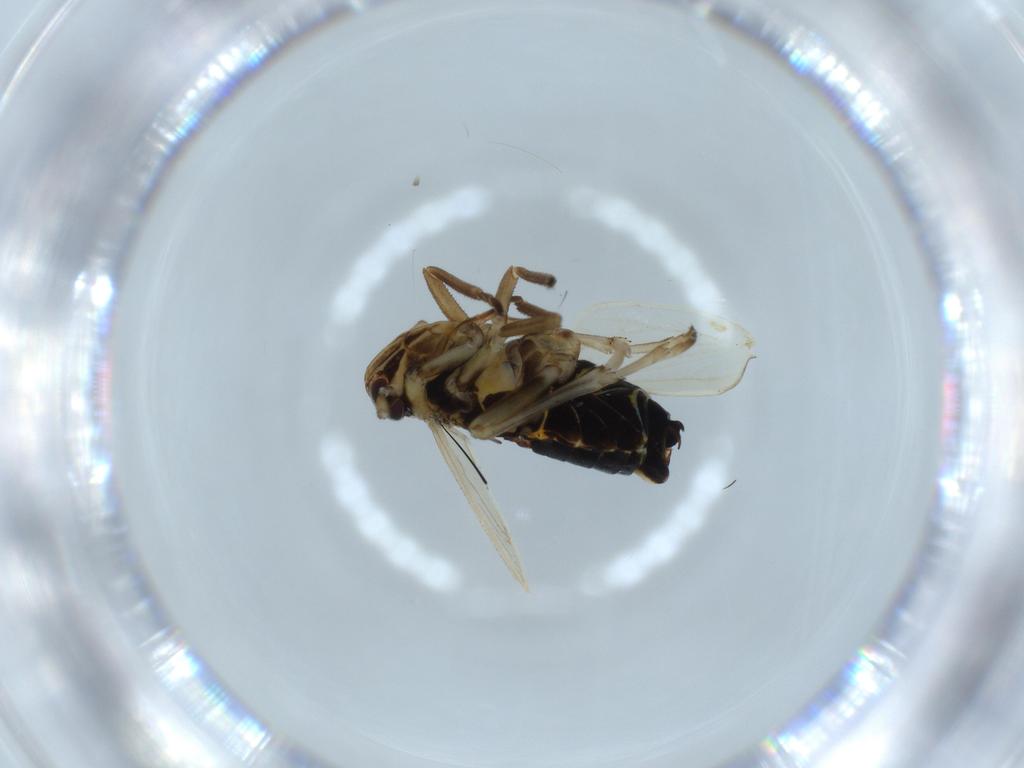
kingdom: Animalia
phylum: Arthropoda
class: Insecta
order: Hemiptera
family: Delphacidae
